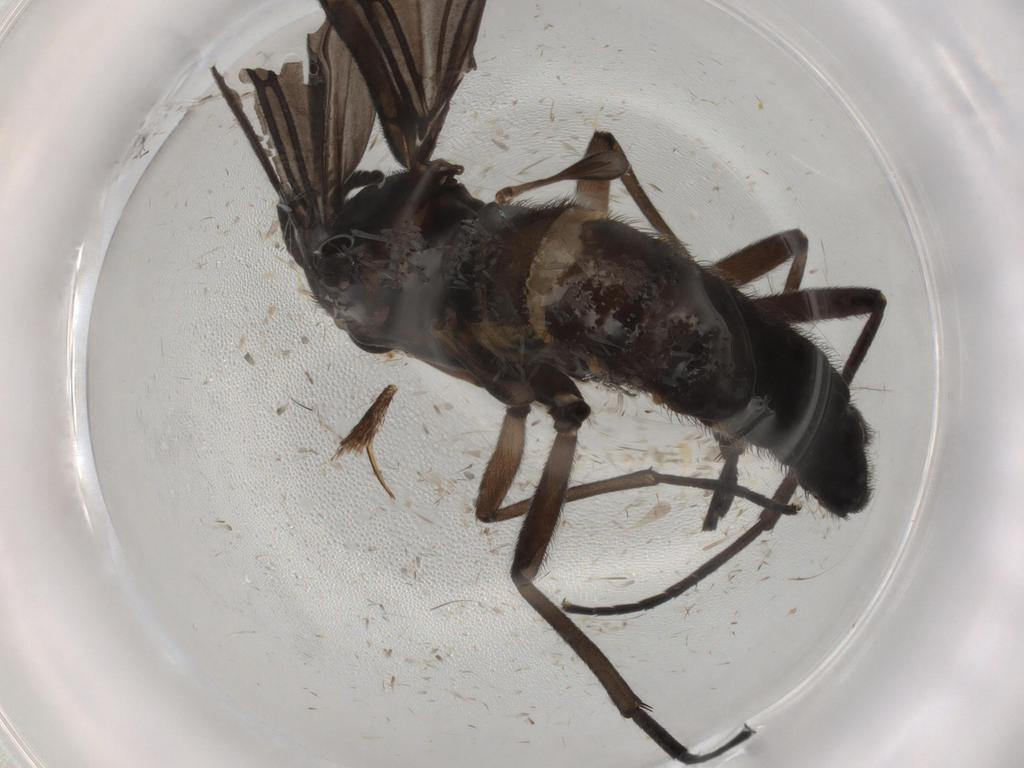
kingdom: Animalia
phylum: Arthropoda
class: Insecta
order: Diptera
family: Sciaridae
